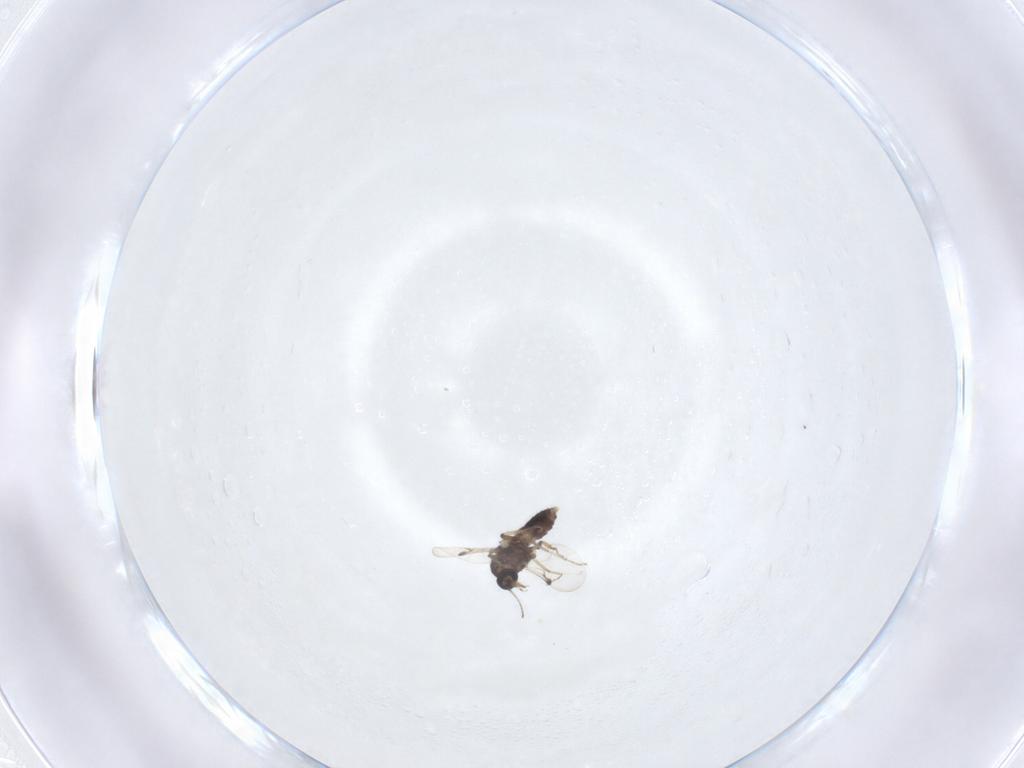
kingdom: Animalia
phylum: Arthropoda
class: Insecta
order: Diptera
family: Ceratopogonidae
